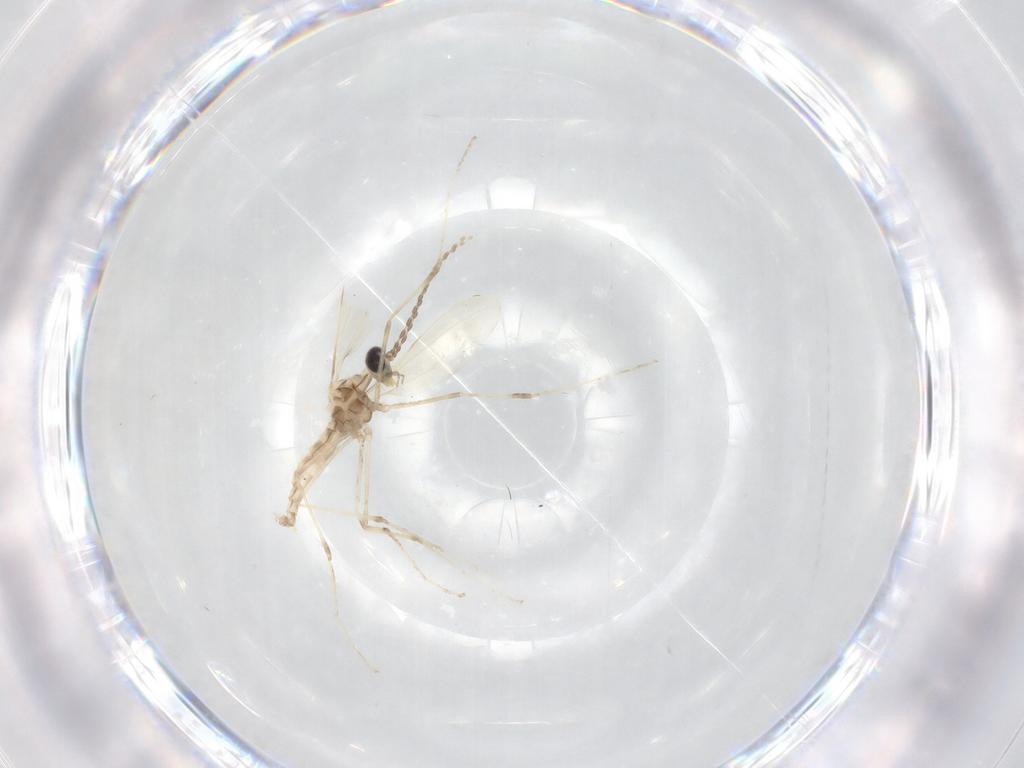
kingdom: Animalia
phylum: Arthropoda
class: Insecta
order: Diptera
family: Cecidomyiidae
